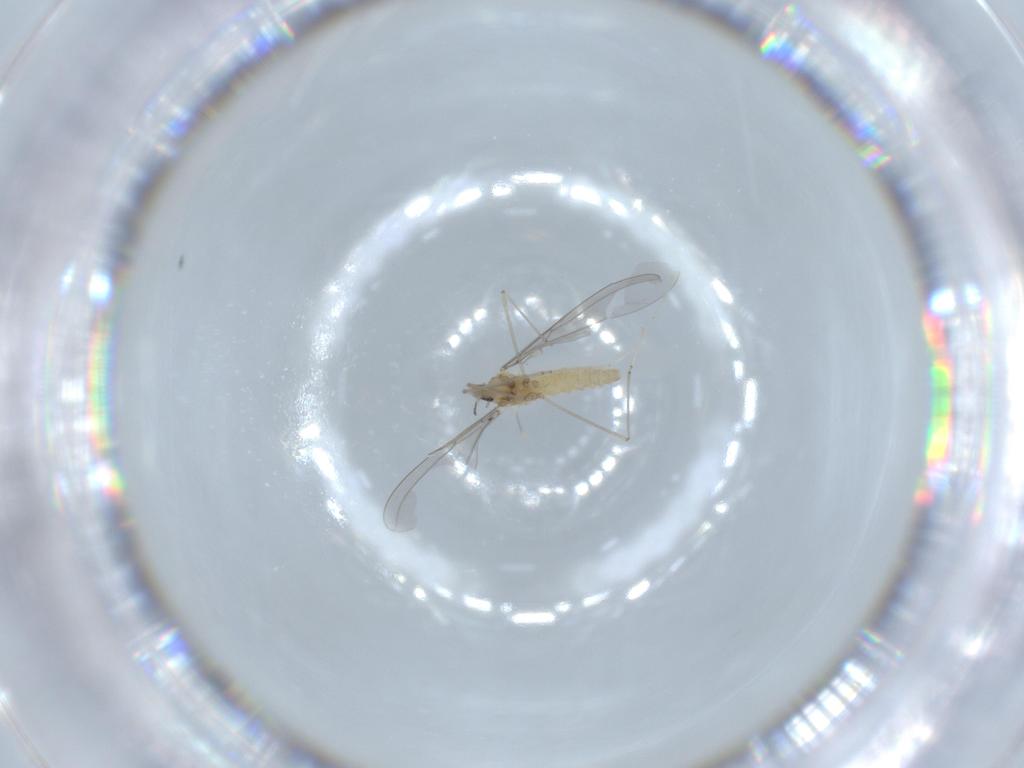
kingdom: Animalia
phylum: Arthropoda
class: Insecta
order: Diptera
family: Cecidomyiidae
